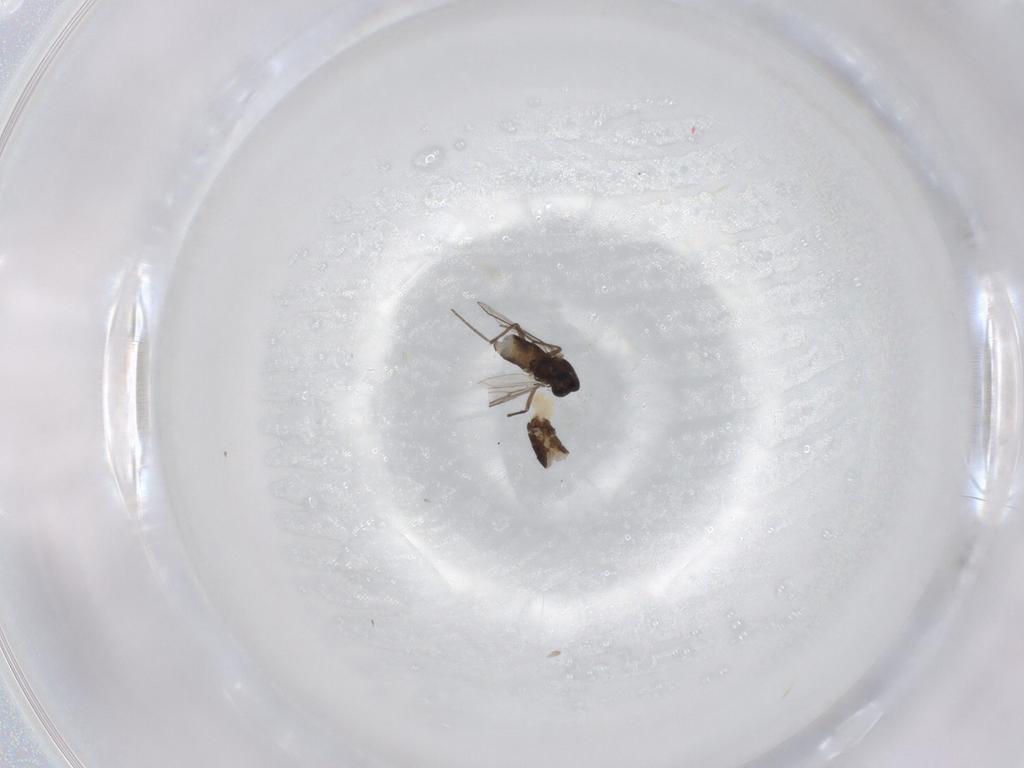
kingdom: Animalia
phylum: Arthropoda
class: Insecta
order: Diptera
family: Chironomidae
